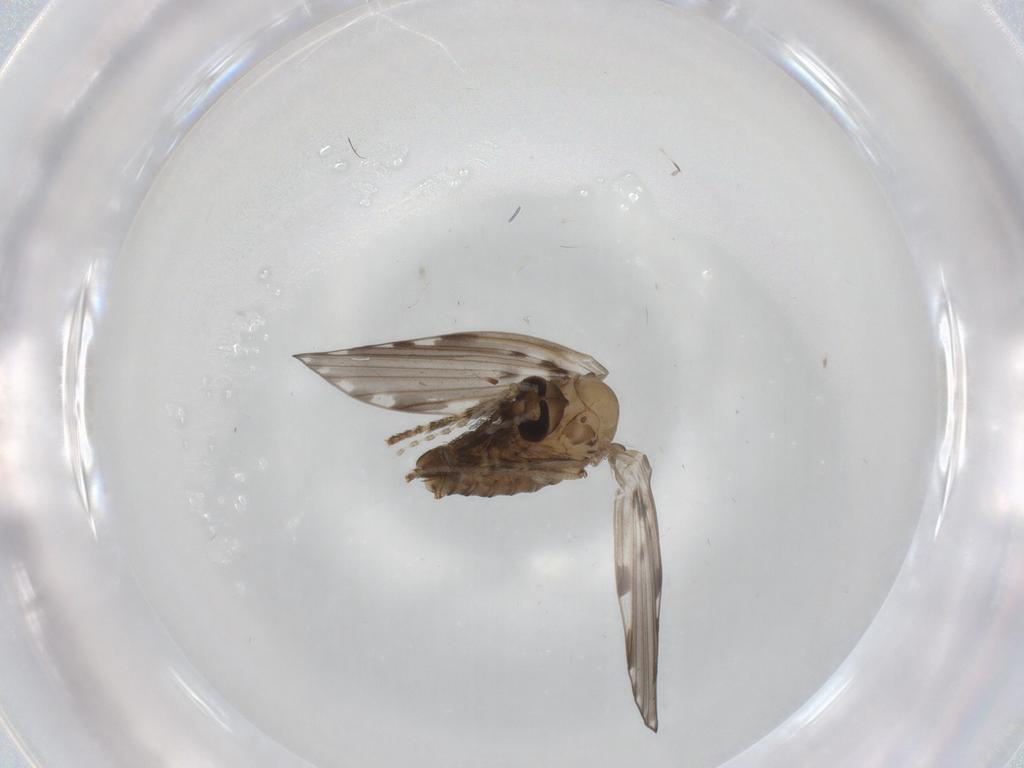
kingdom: Animalia
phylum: Arthropoda
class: Insecta
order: Diptera
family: Psychodidae
